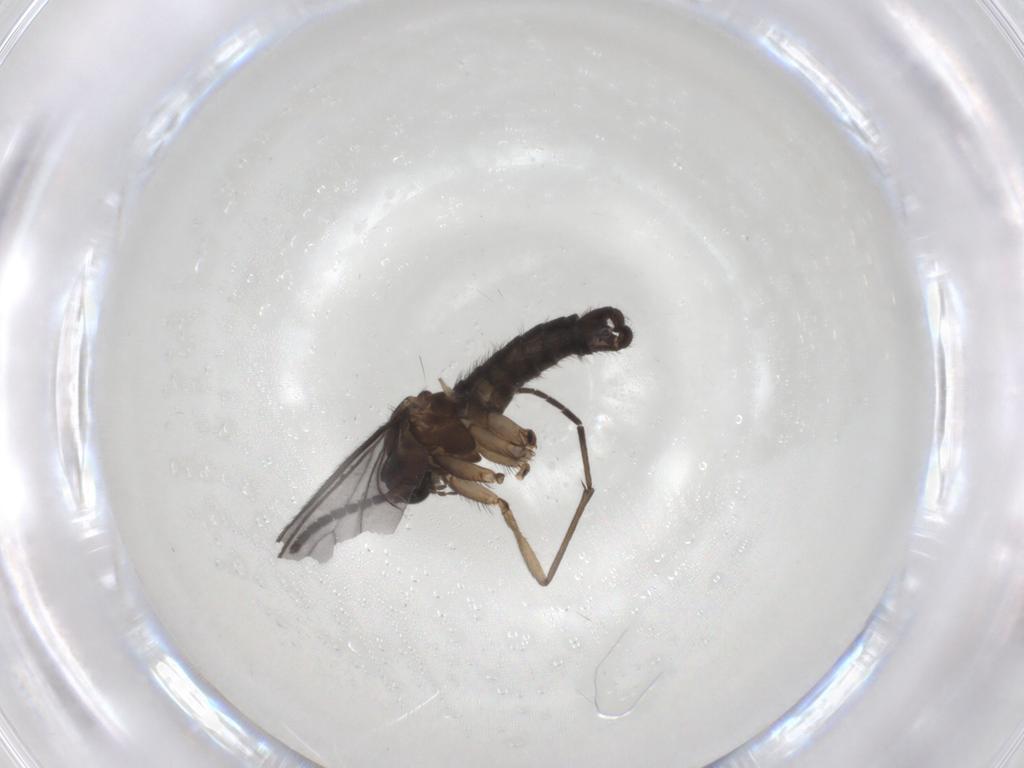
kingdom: Animalia
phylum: Arthropoda
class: Insecta
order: Diptera
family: Sciaridae
